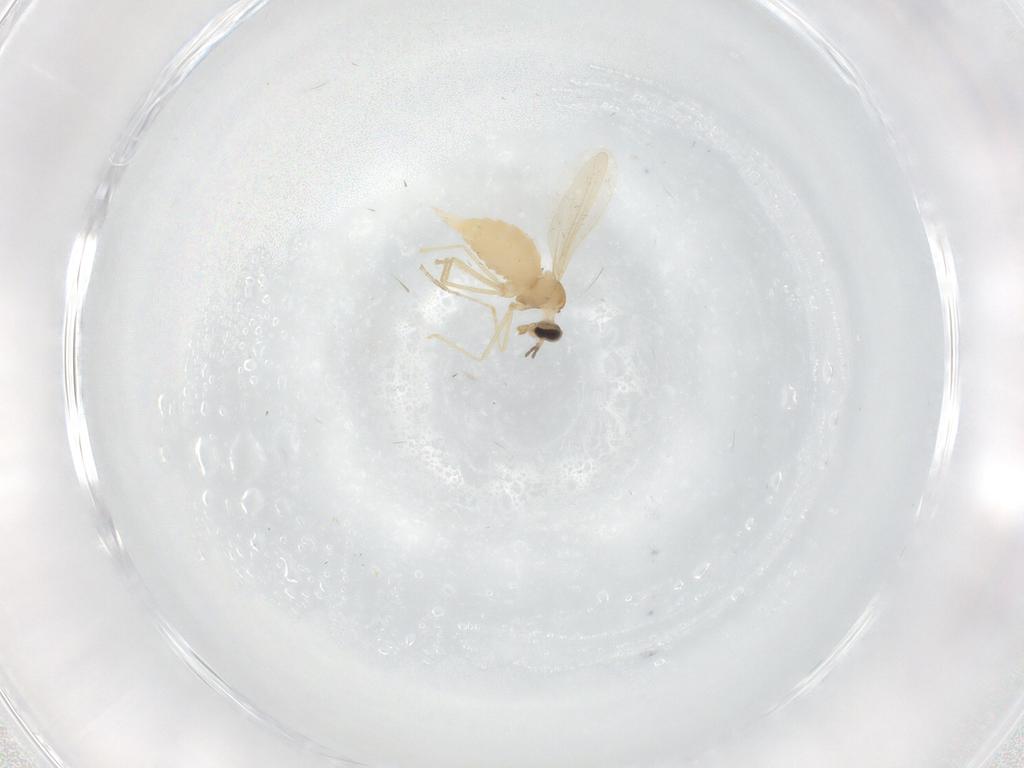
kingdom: Animalia
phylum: Arthropoda
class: Insecta
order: Diptera
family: Cecidomyiidae
